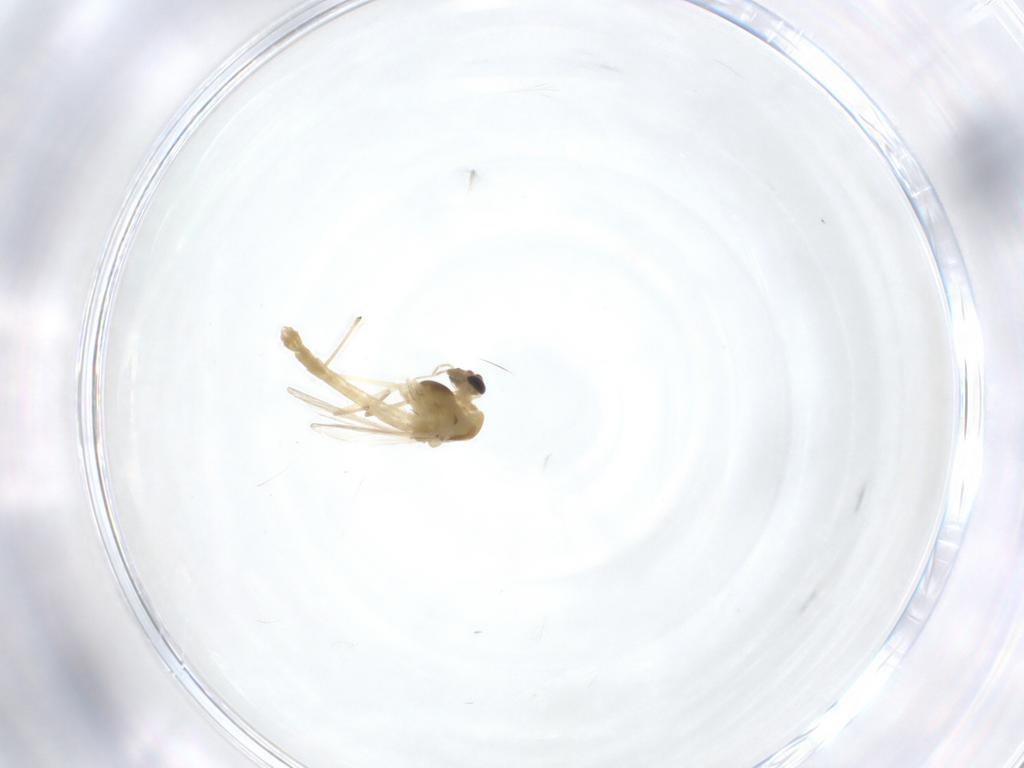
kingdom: Animalia
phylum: Arthropoda
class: Insecta
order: Diptera
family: Chironomidae
